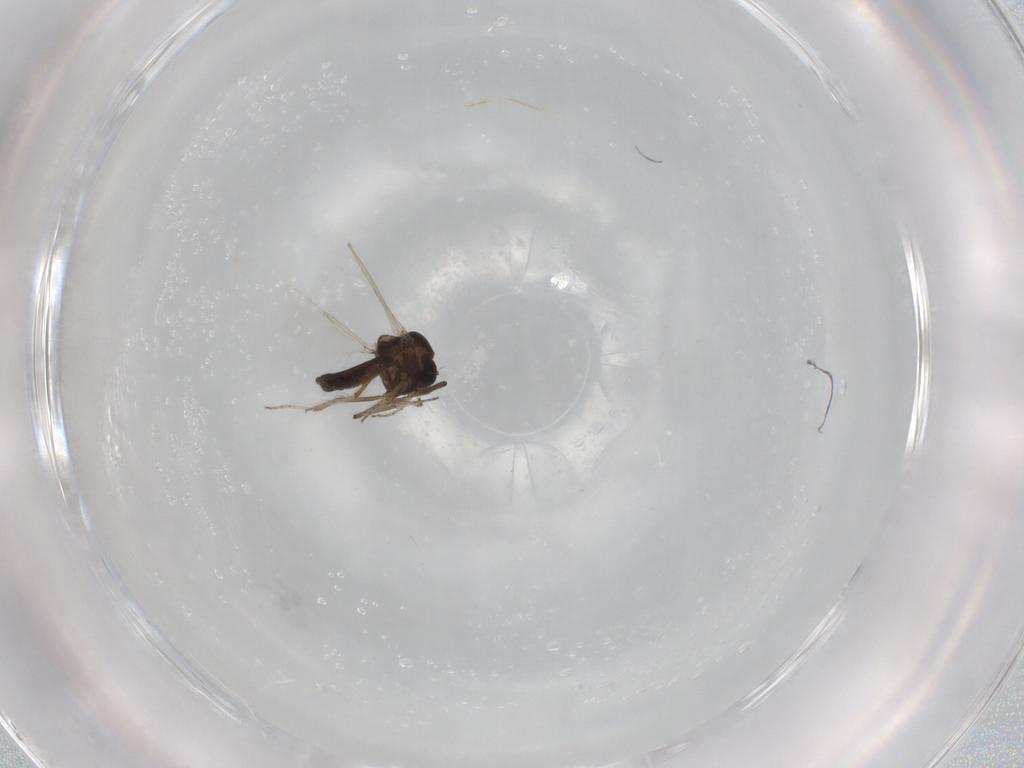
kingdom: Animalia
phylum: Arthropoda
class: Insecta
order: Diptera
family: Ceratopogonidae
